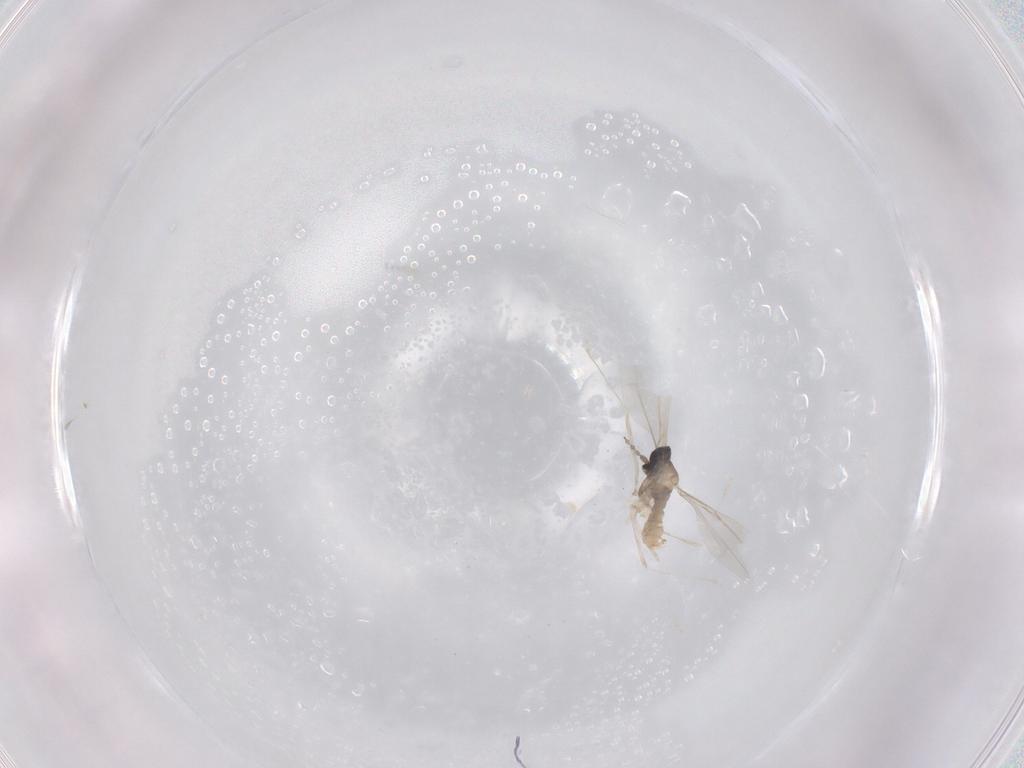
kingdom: Animalia
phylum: Arthropoda
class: Insecta
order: Diptera
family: Cecidomyiidae
